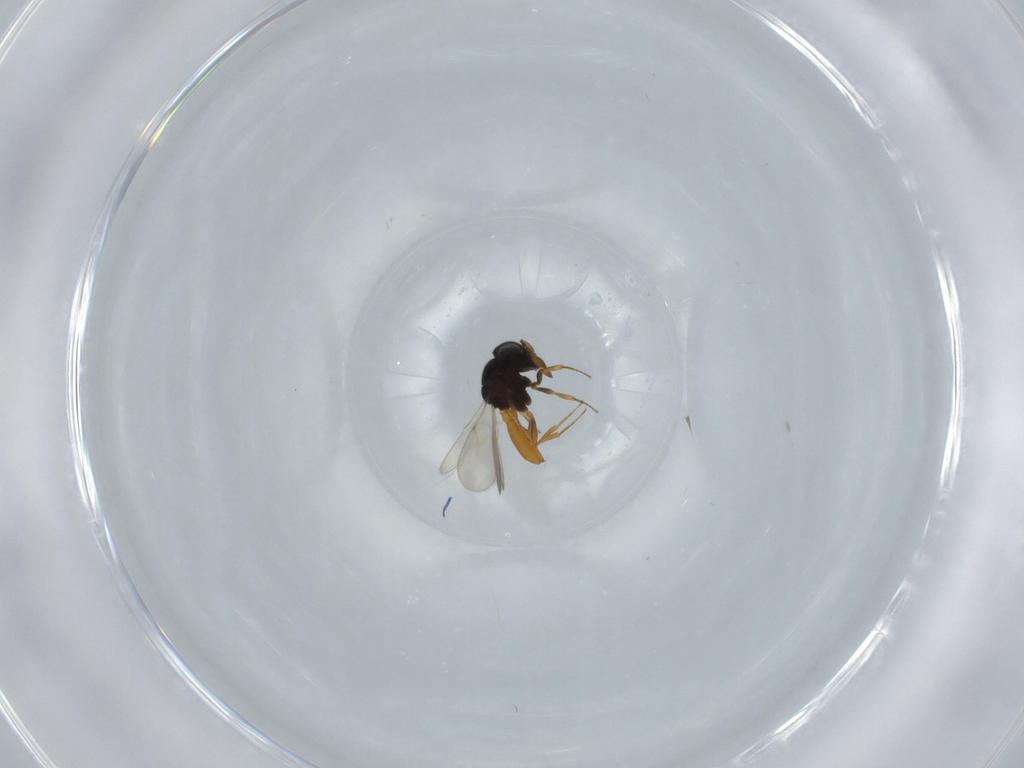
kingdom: Animalia
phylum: Arthropoda
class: Insecta
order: Hymenoptera
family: Scelionidae
